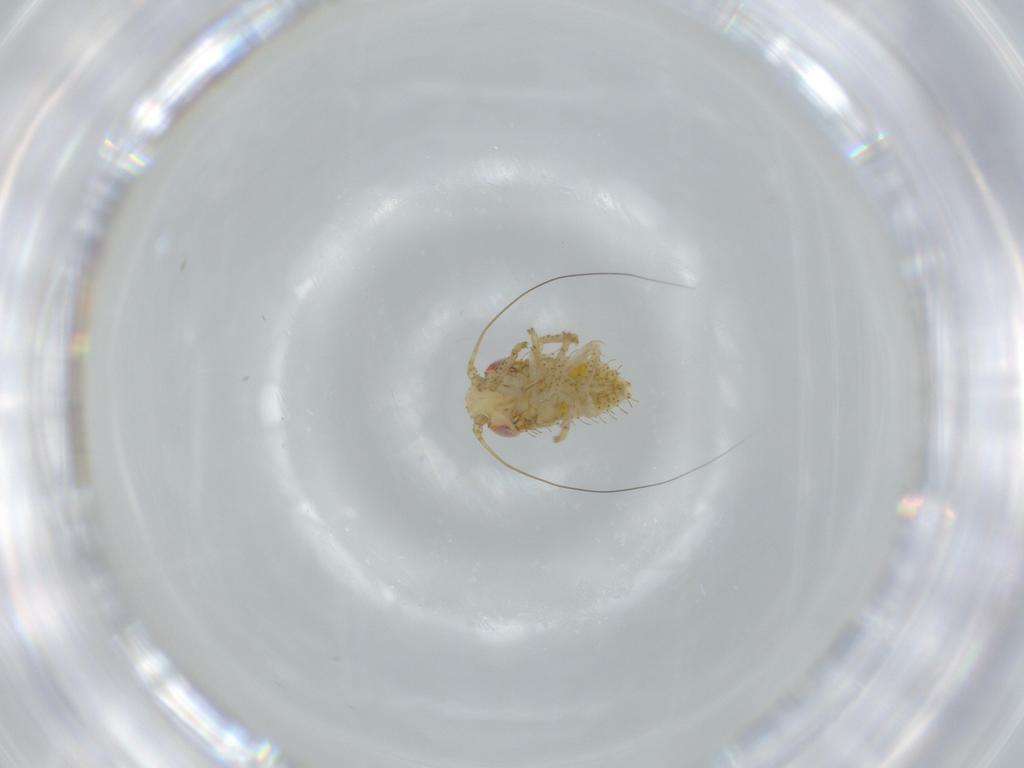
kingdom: Animalia
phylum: Arthropoda
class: Insecta
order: Hemiptera
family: Cicadellidae
